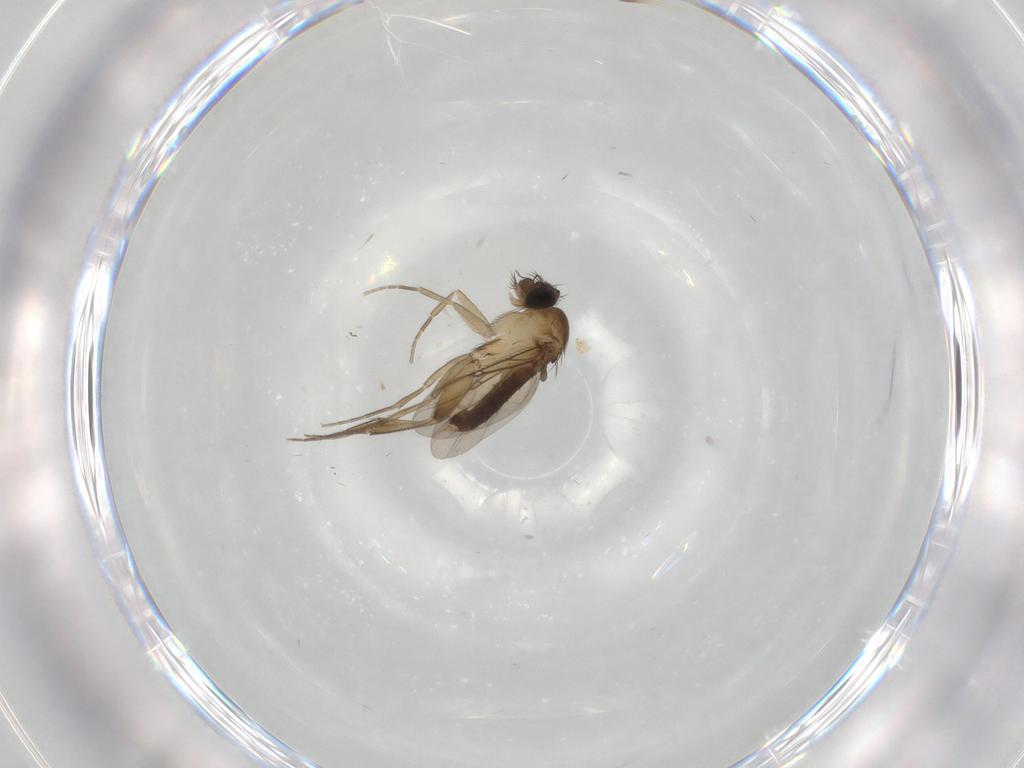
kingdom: Animalia
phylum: Arthropoda
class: Insecta
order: Diptera
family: Phoridae
